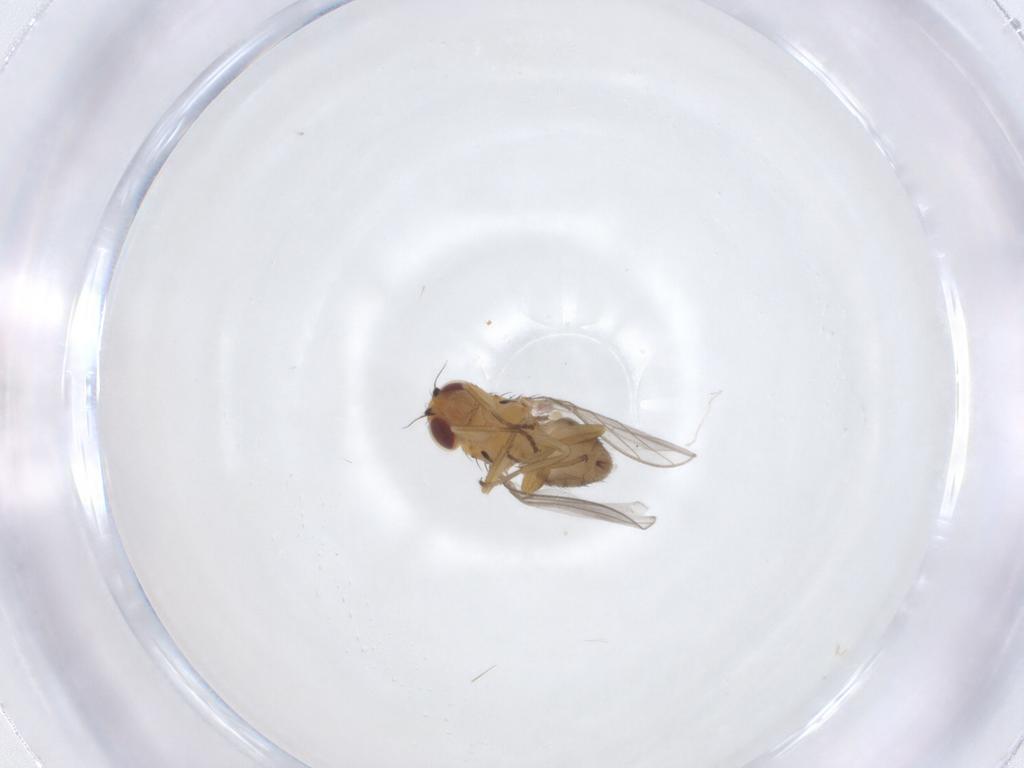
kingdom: Animalia
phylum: Arthropoda
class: Insecta
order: Diptera
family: Chloropidae
